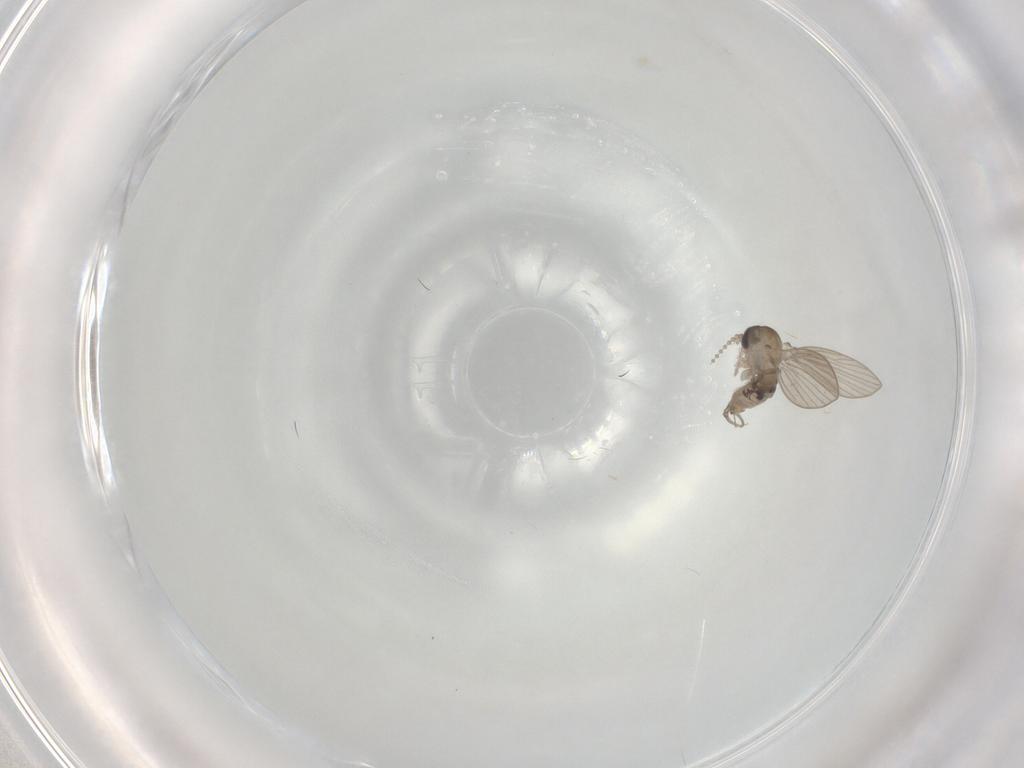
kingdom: Animalia
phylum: Arthropoda
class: Insecta
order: Diptera
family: Psychodidae
